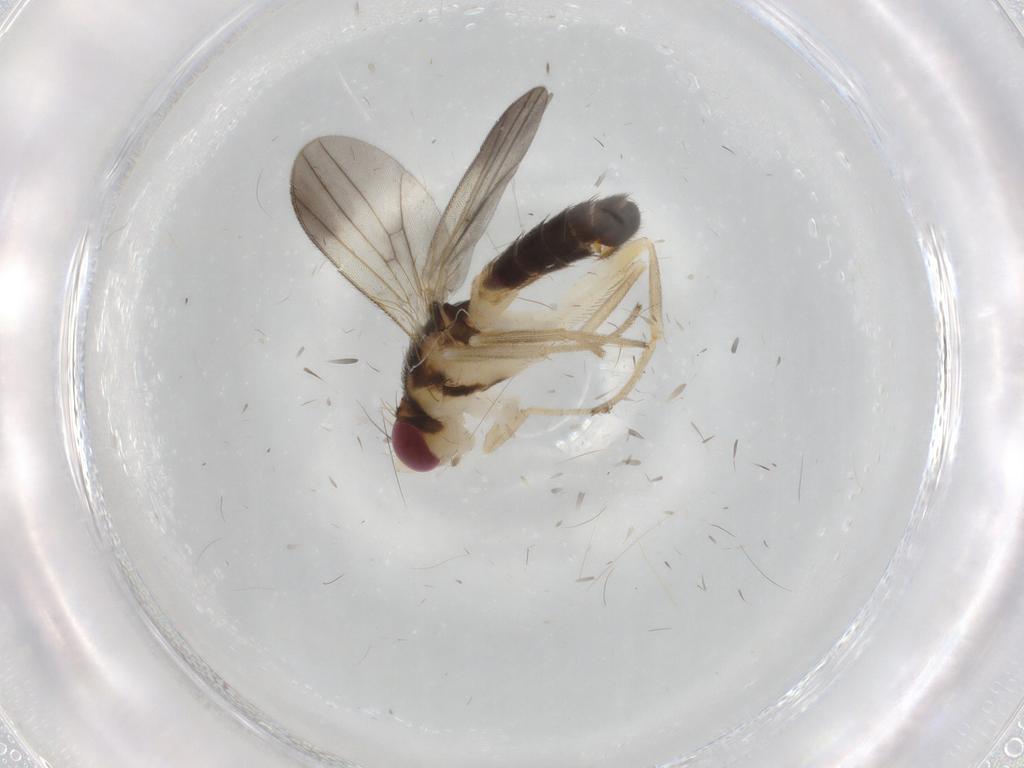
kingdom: Animalia
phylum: Arthropoda
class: Insecta
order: Diptera
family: Clusiidae
